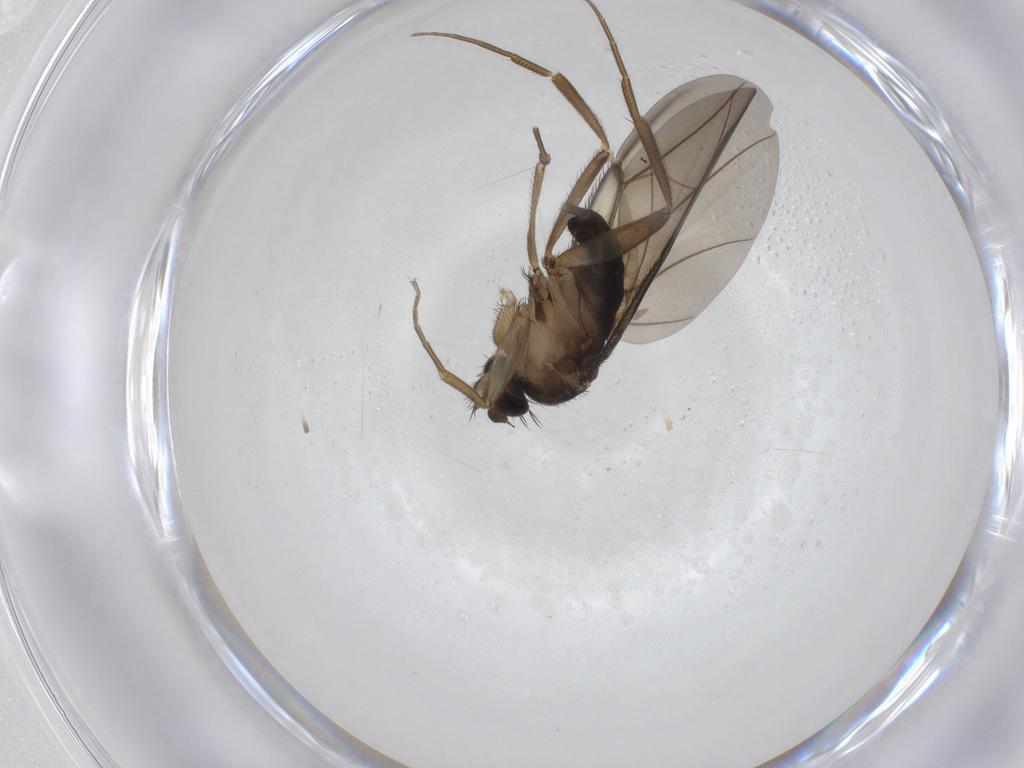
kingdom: Animalia
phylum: Arthropoda
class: Insecta
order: Diptera
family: Phoridae
